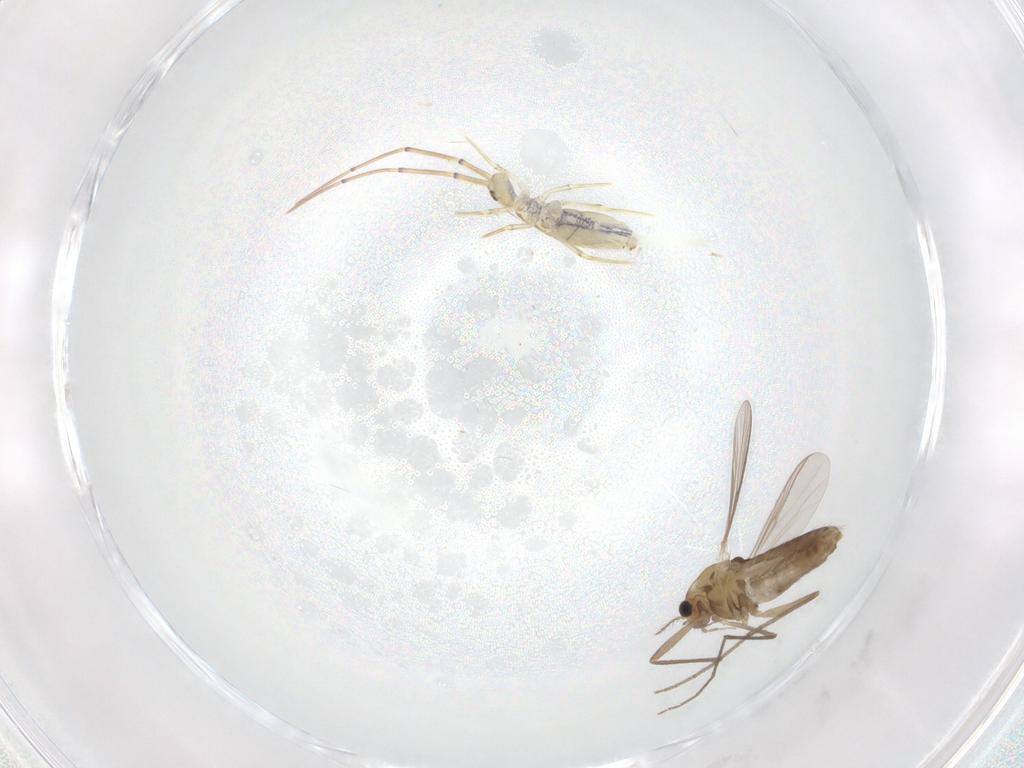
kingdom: Animalia
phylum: Arthropoda
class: Insecta
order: Diptera
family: Chironomidae
